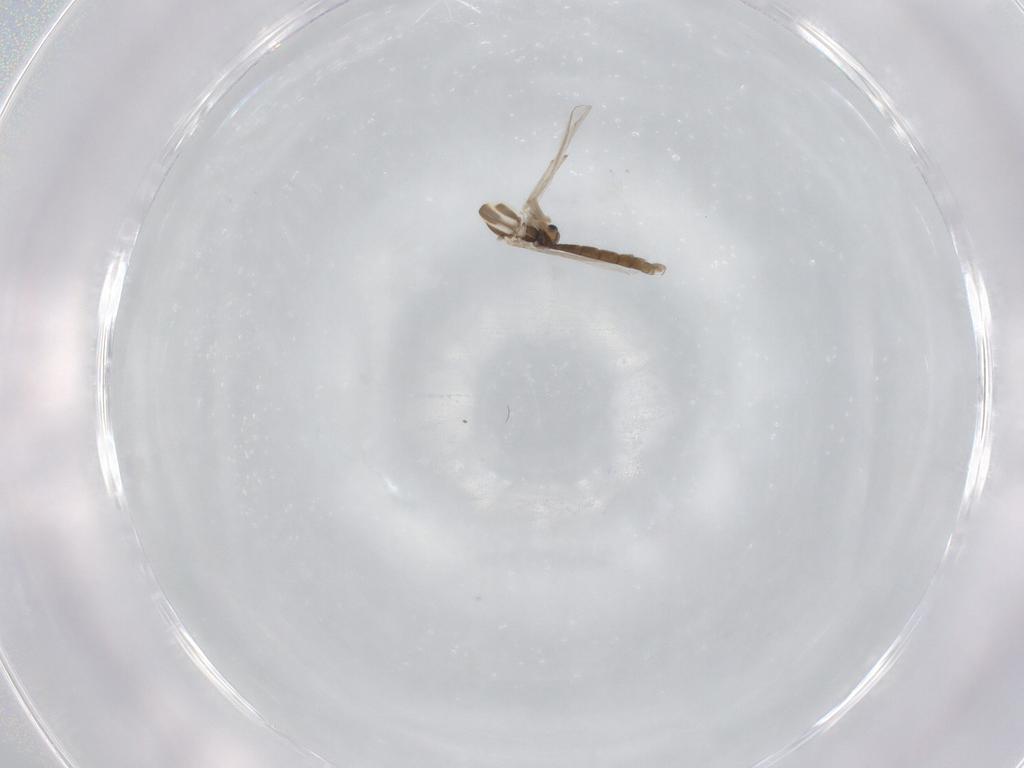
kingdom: Animalia
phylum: Arthropoda
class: Insecta
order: Diptera
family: Chironomidae
